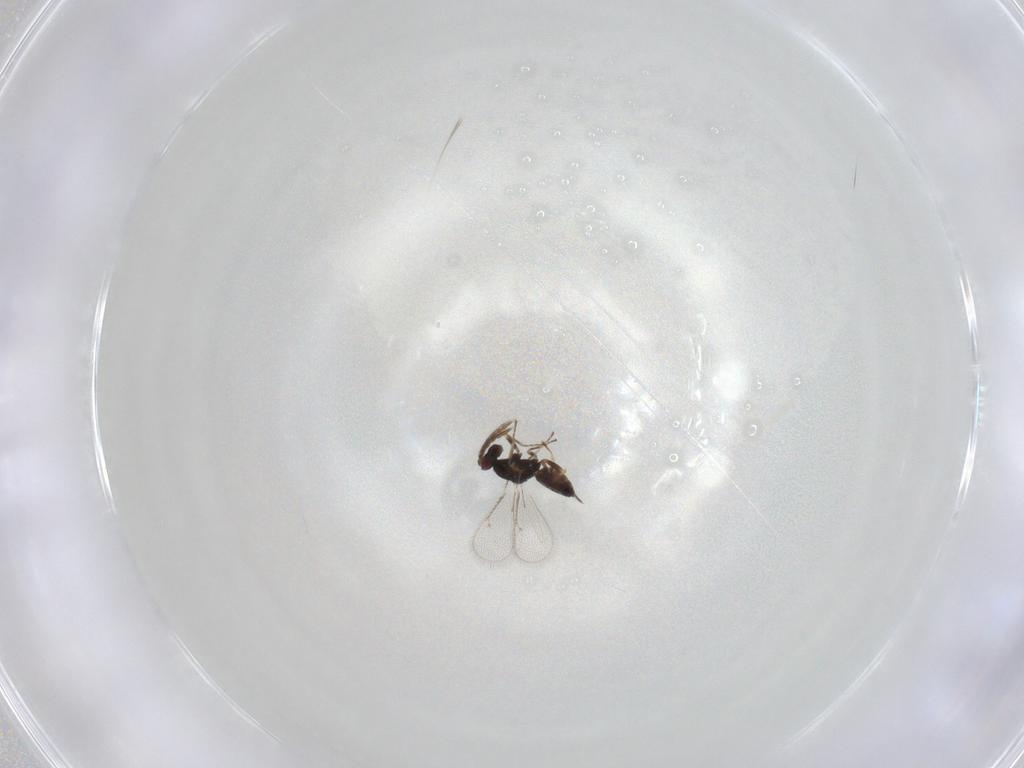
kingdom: Animalia
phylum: Arthropoda
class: Insecta
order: Hymenoptera
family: Eulophidae
